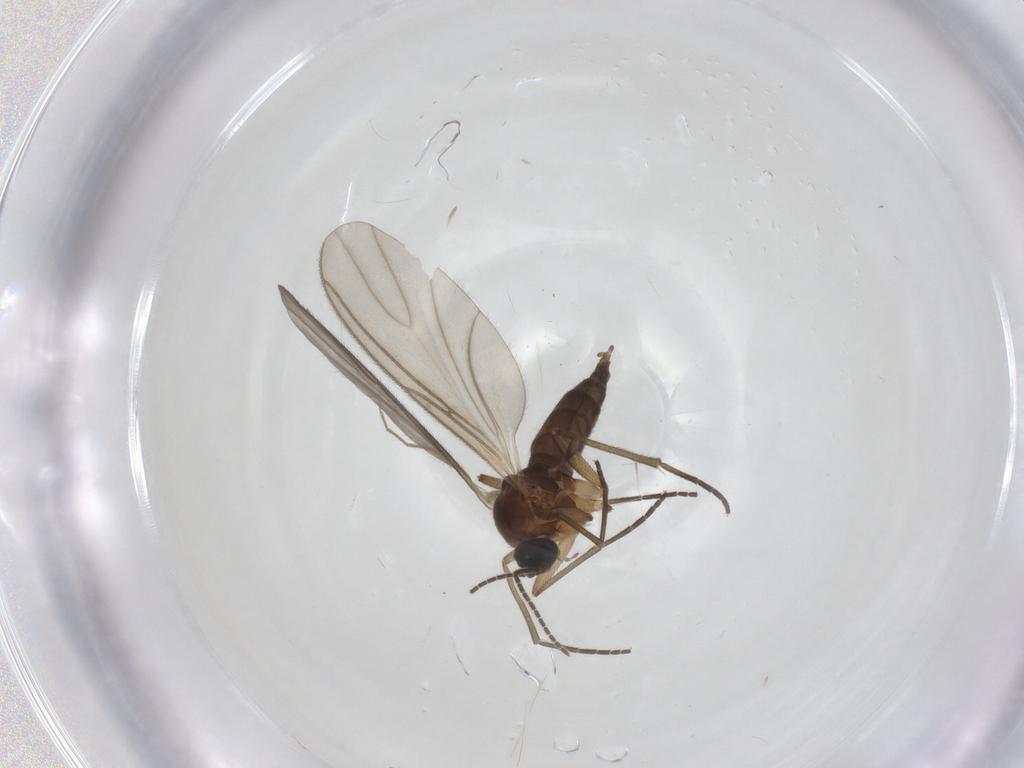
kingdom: Animalia
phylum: Arthropoda
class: Insecta
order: Diptera
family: Sciaridae
